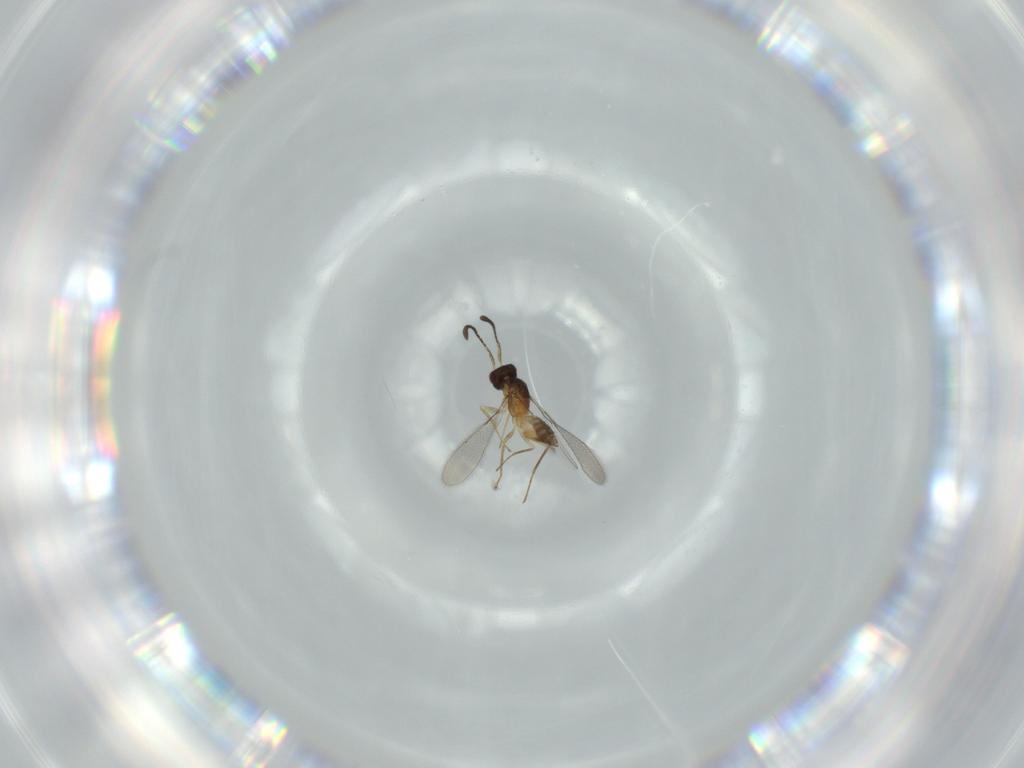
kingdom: Animalia
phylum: Arthropoda
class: Insecta
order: Hymenoptera
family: Mymaridae
